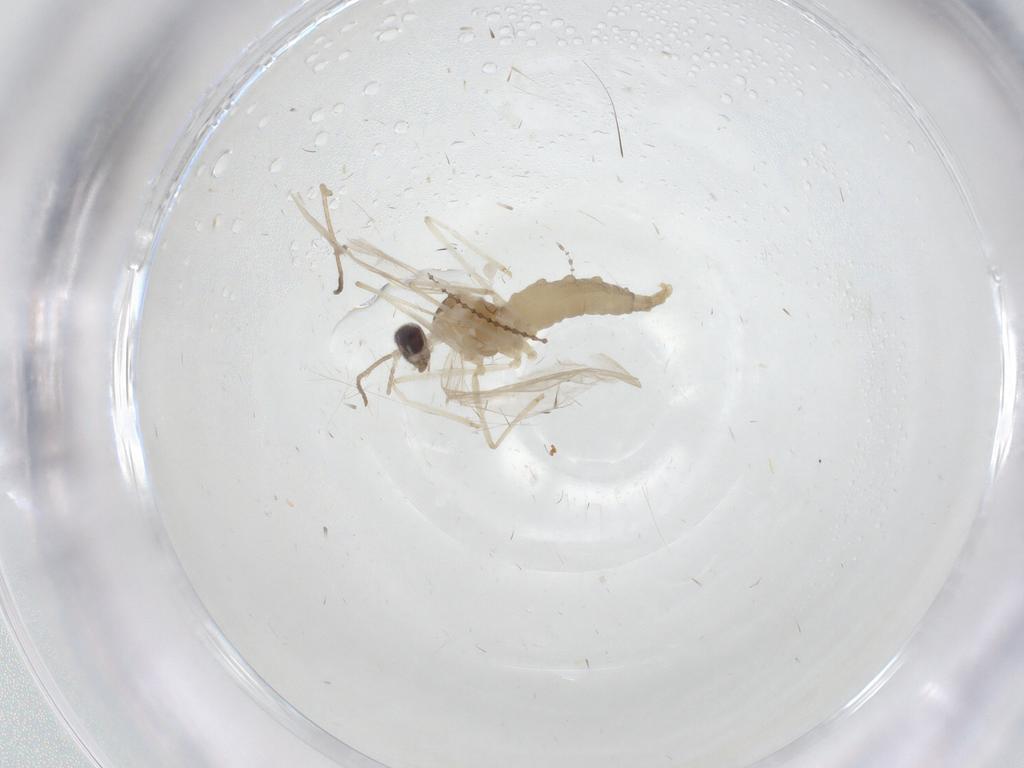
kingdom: Animalia
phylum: Arthropoda
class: Insecta
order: Diptera
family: Cecidomyiidae
